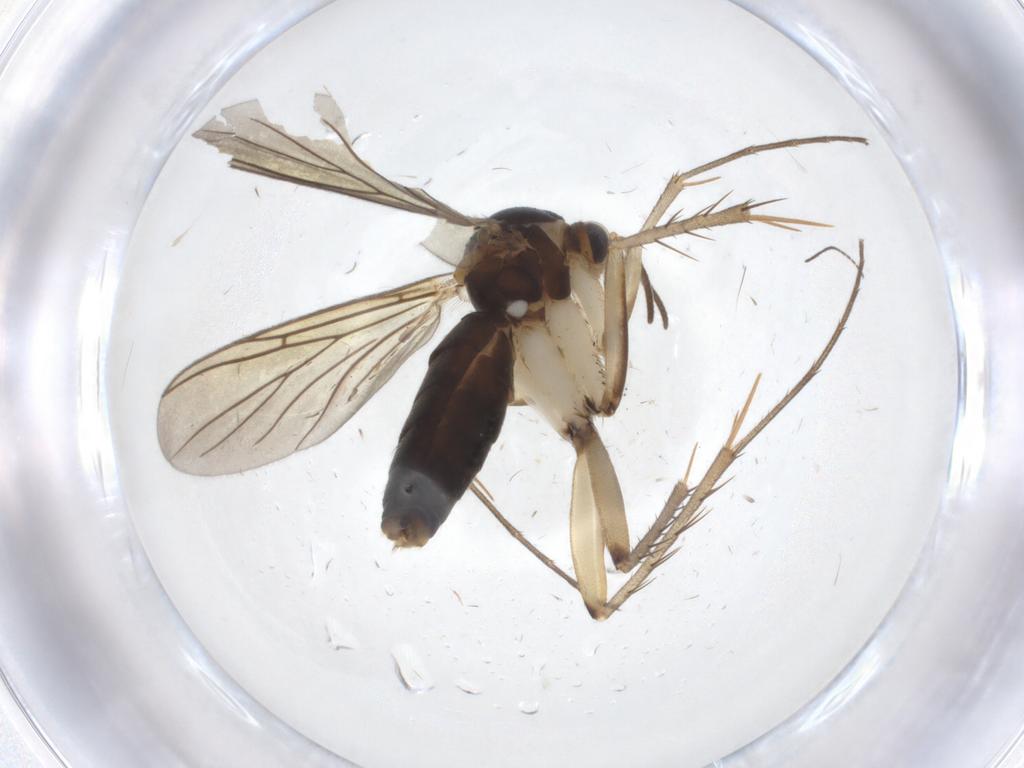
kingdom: Animalia
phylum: Arthropoda
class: Insecta
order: Diptera
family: Mycetophilidae
